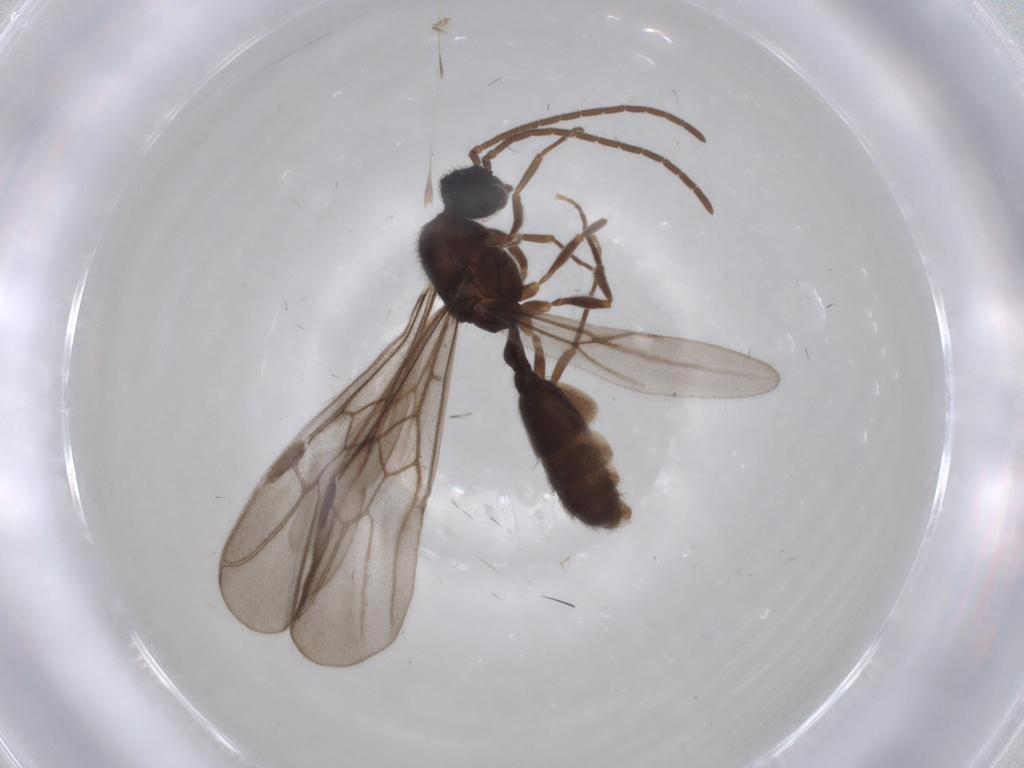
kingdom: Animalia
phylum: Arthropoda
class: Insecta
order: Hymenoptera
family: Formicidae
